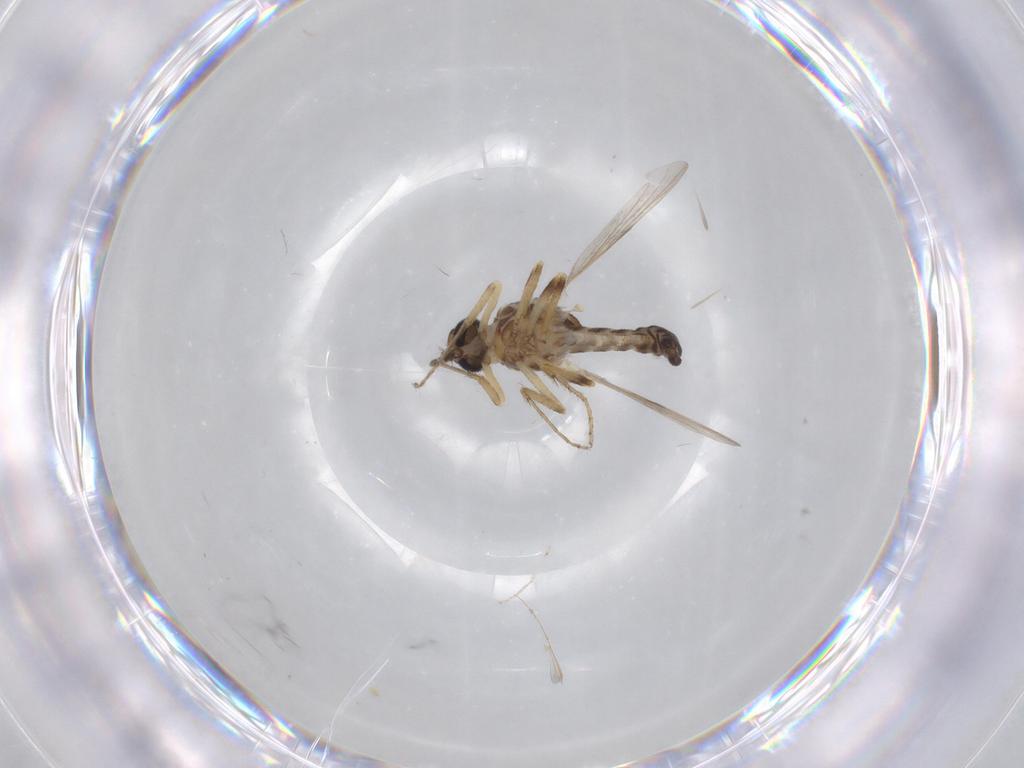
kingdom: Animalia
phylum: Arthropoda
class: Insecta
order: Diptera
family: Ceratopogonidae
